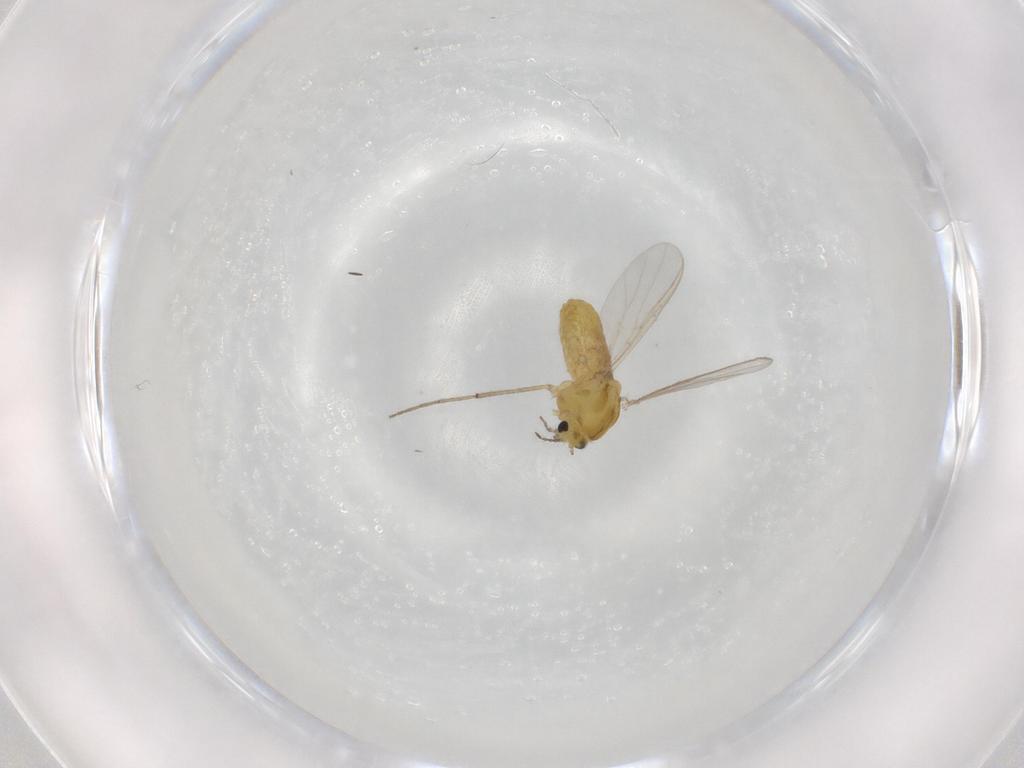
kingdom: Animalia
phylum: Arthropoda
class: Insecta
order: Diptera
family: Chironomidae
